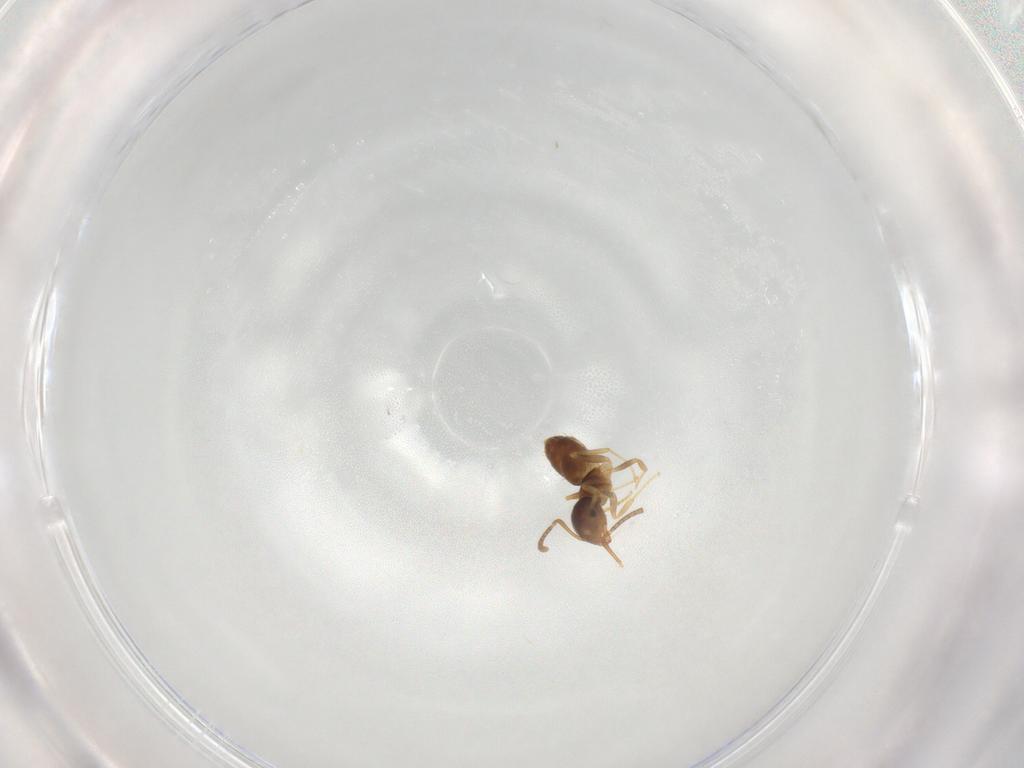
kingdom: Animalia
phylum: Arthropoda
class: Insecta
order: Hymenoptera
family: Formicidae
